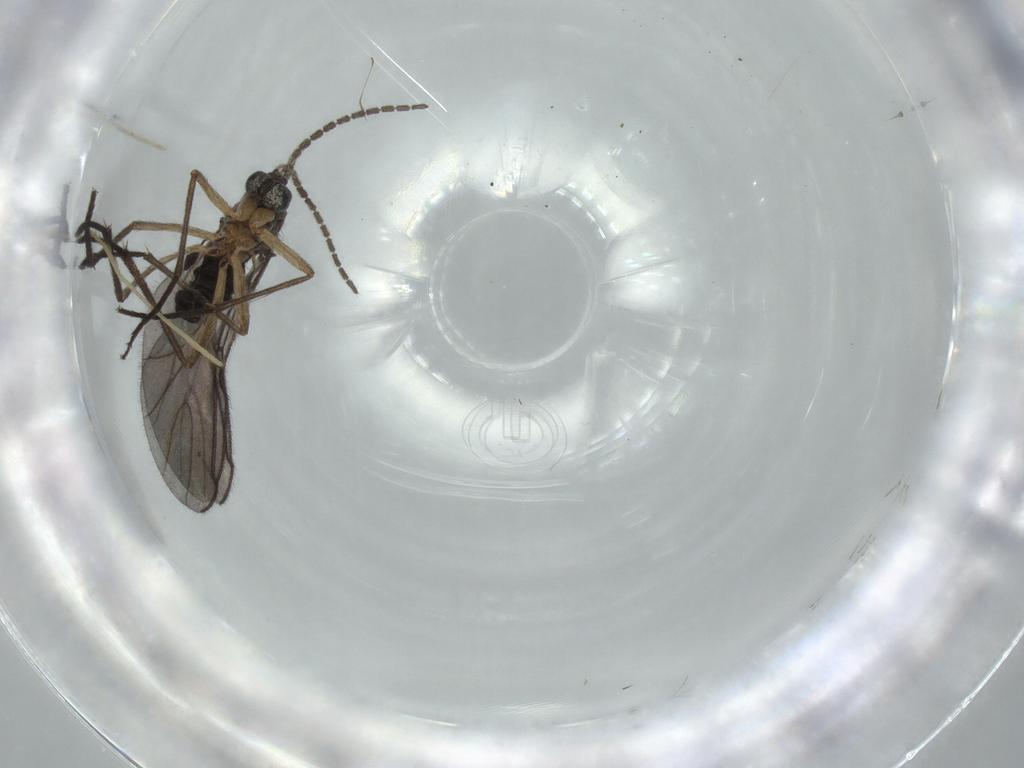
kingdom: Animalia
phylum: Arthropoda
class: Insecta
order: Diptera
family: Sciaridae
